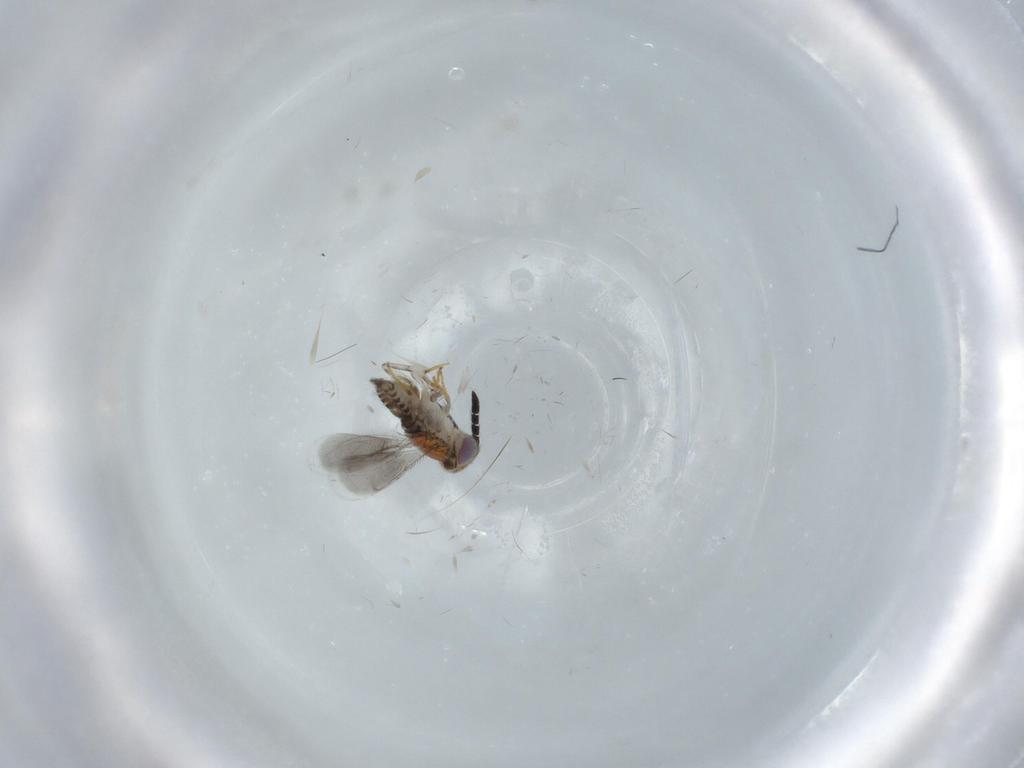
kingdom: Animalia
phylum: Arthropoda
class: Insecta
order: Hymenoptera
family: Aphelinidae
